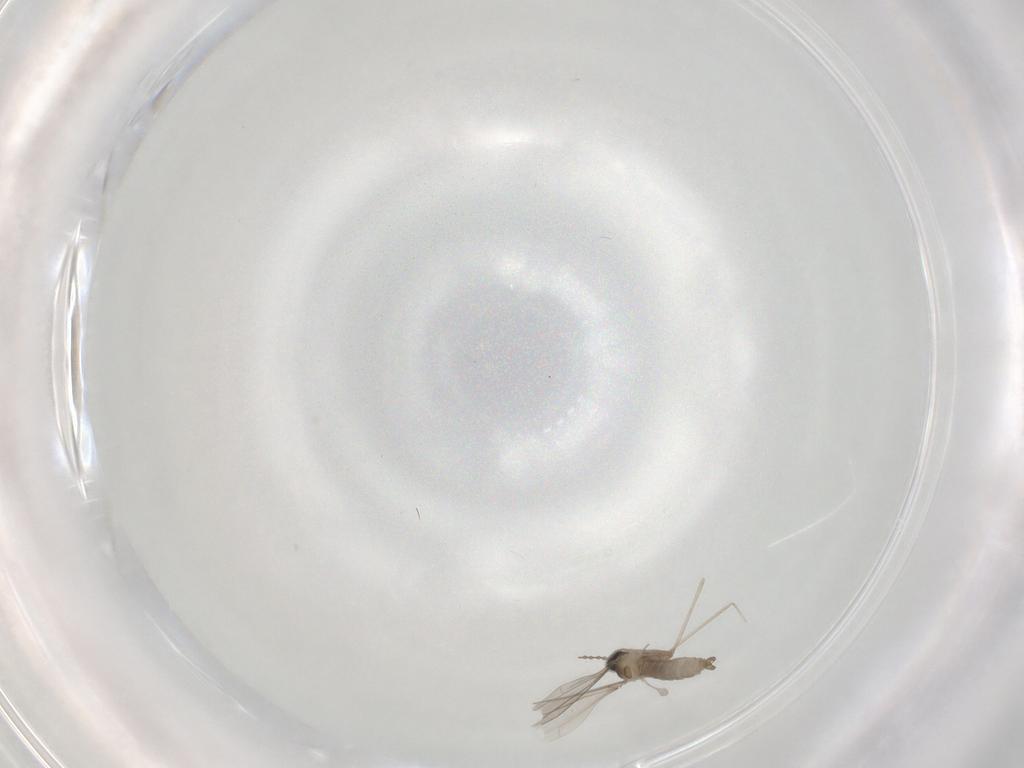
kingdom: Animalia
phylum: Arthropoda
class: Insecta
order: Diptera
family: Cecidomyiidae
